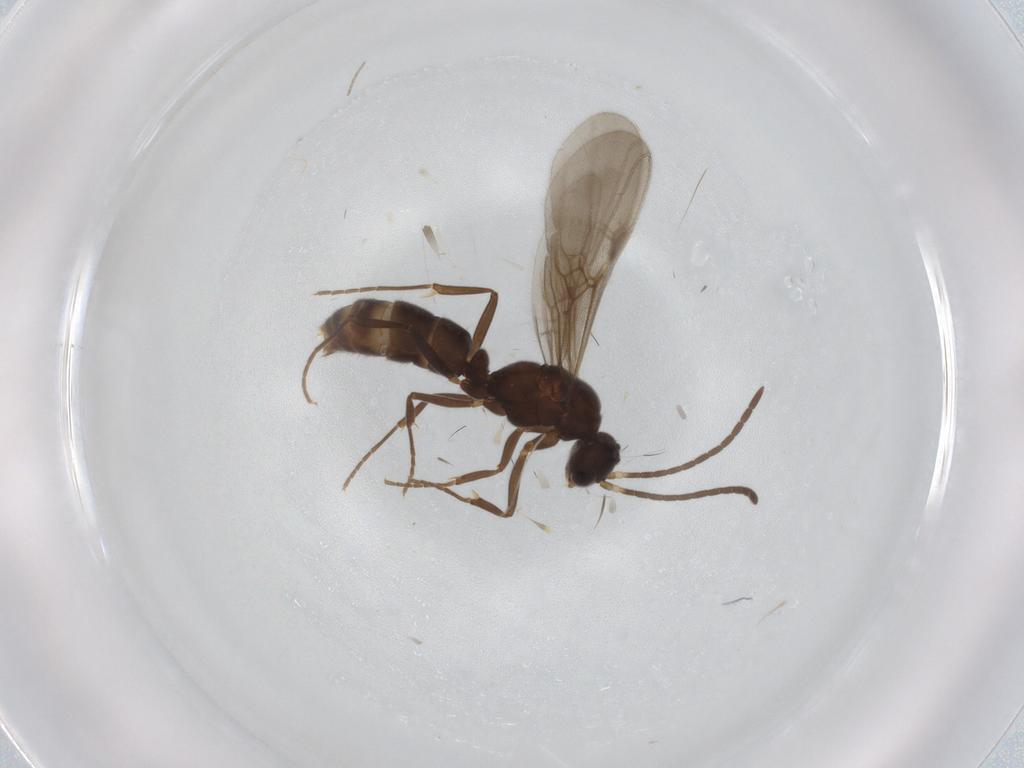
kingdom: Animalia
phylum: Arthropoda
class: Insecta
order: Hymenoptera
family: Formicidae
